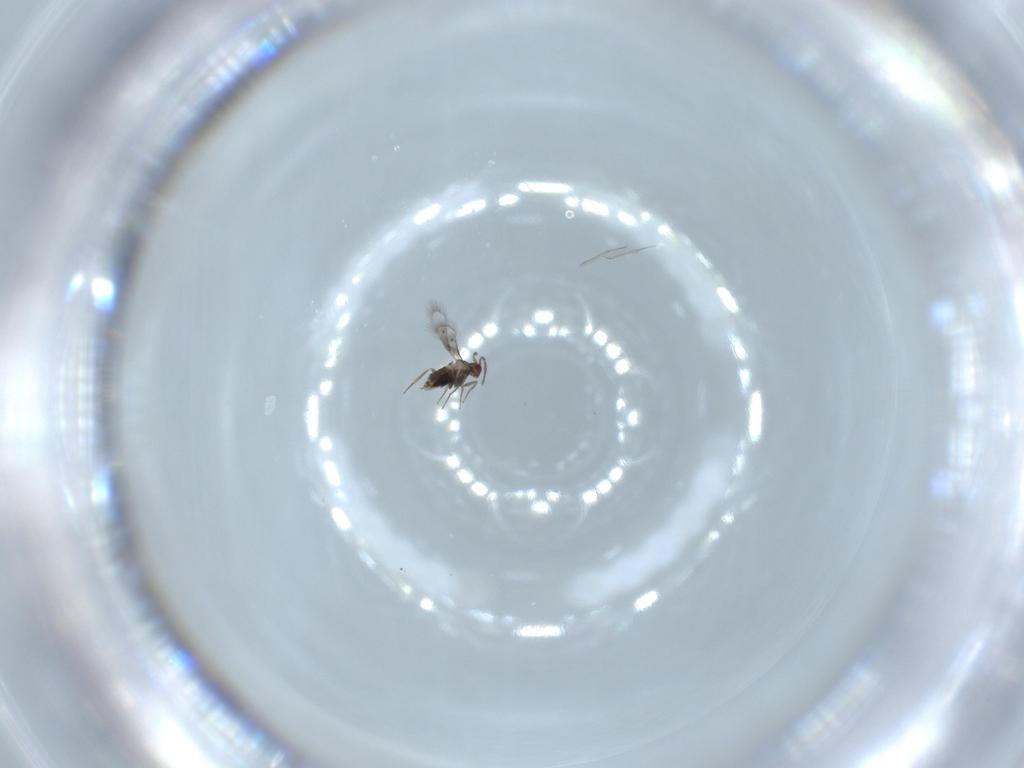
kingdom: Animalia
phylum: Arthropoda
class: Insecta
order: Hymenoptera
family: Trichogrammatidae
